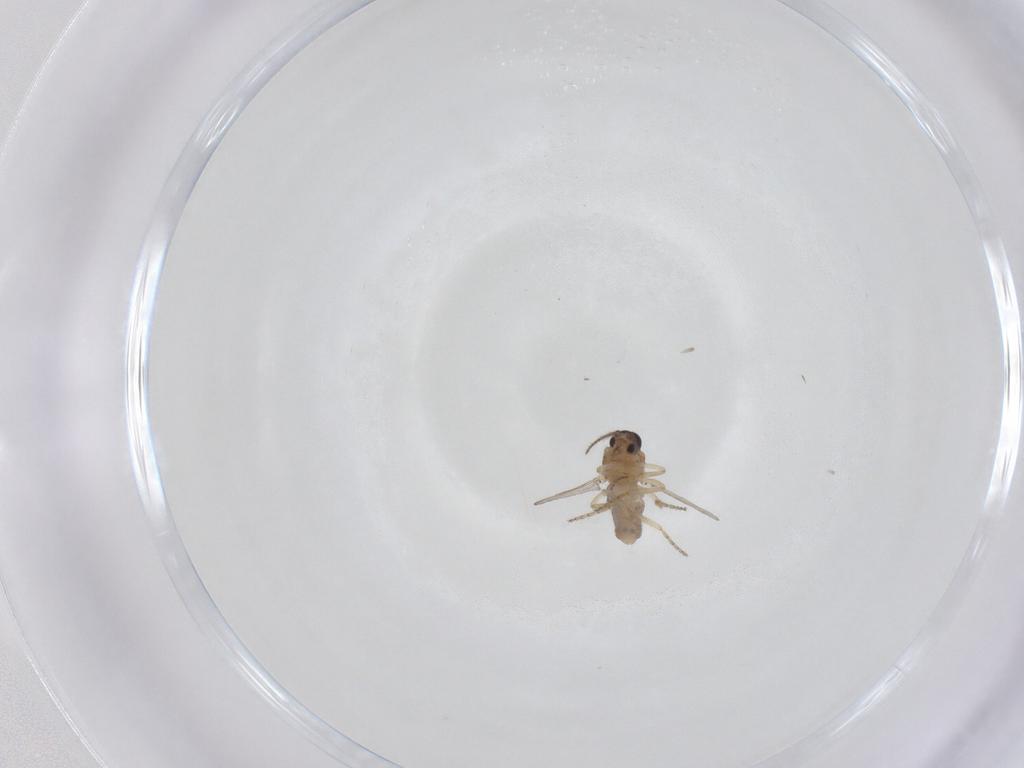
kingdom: Animalia
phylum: Arthropoda
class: Insecta
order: Diptera
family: Ceratopogonidae
